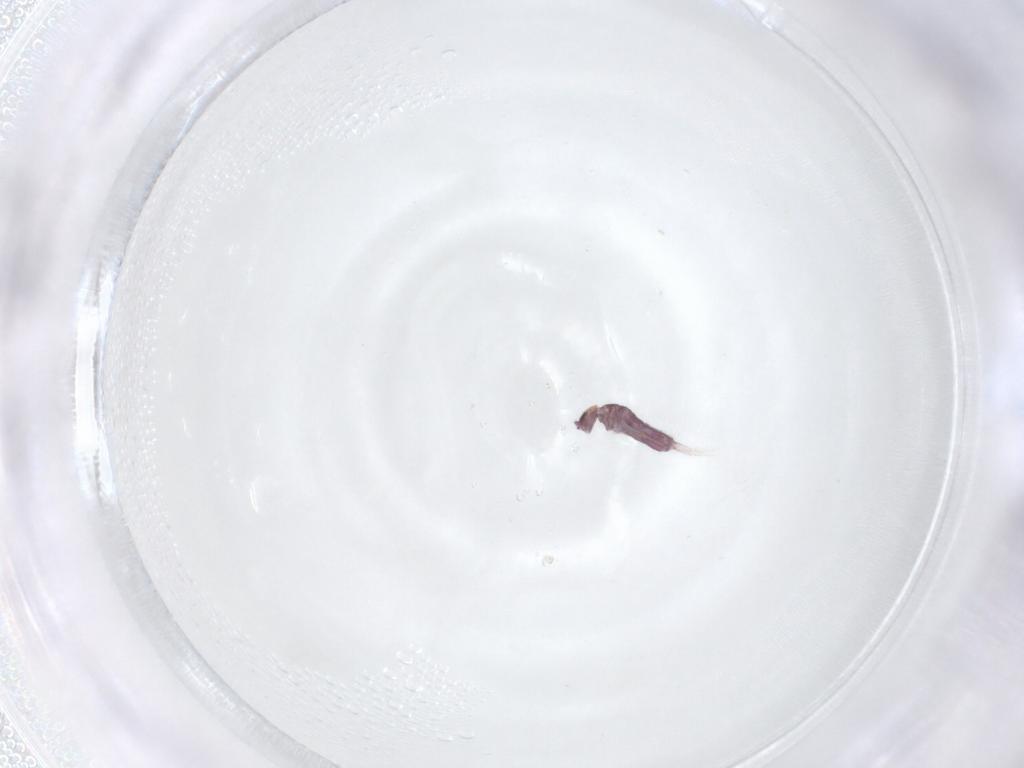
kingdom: Animalia
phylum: Arthropoda
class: Collembola
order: Entomobryomorpha
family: Entomobryidae
